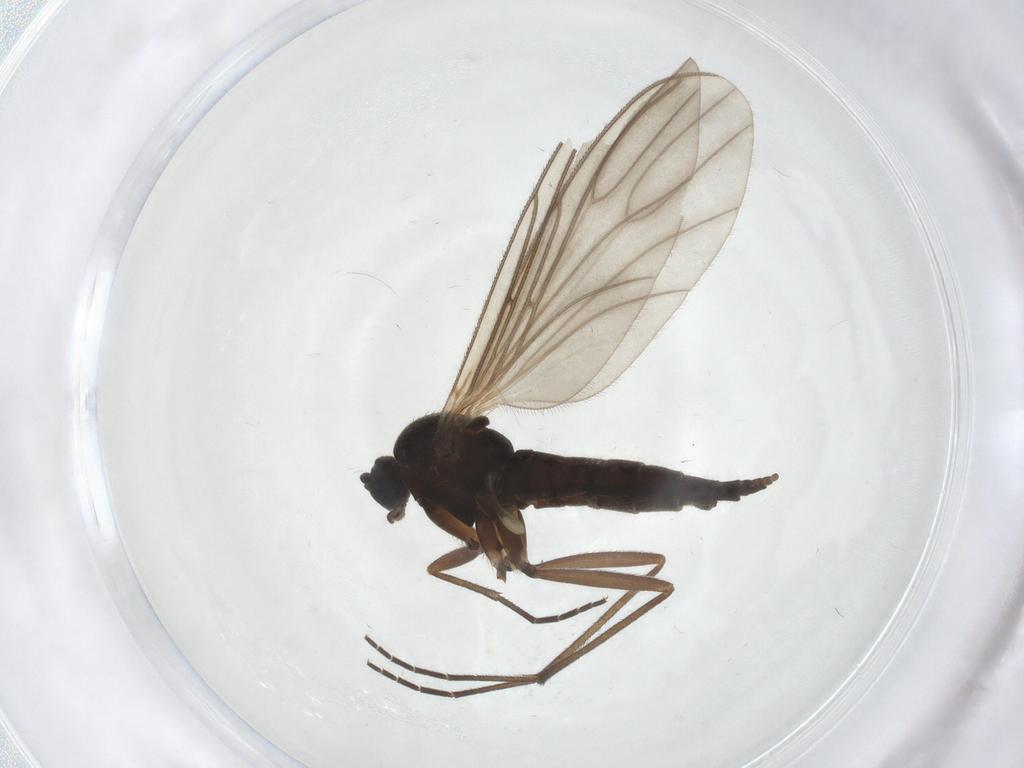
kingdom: Animalia
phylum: Arthropoda
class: Insecta
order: Diptera
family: Sciaridae
